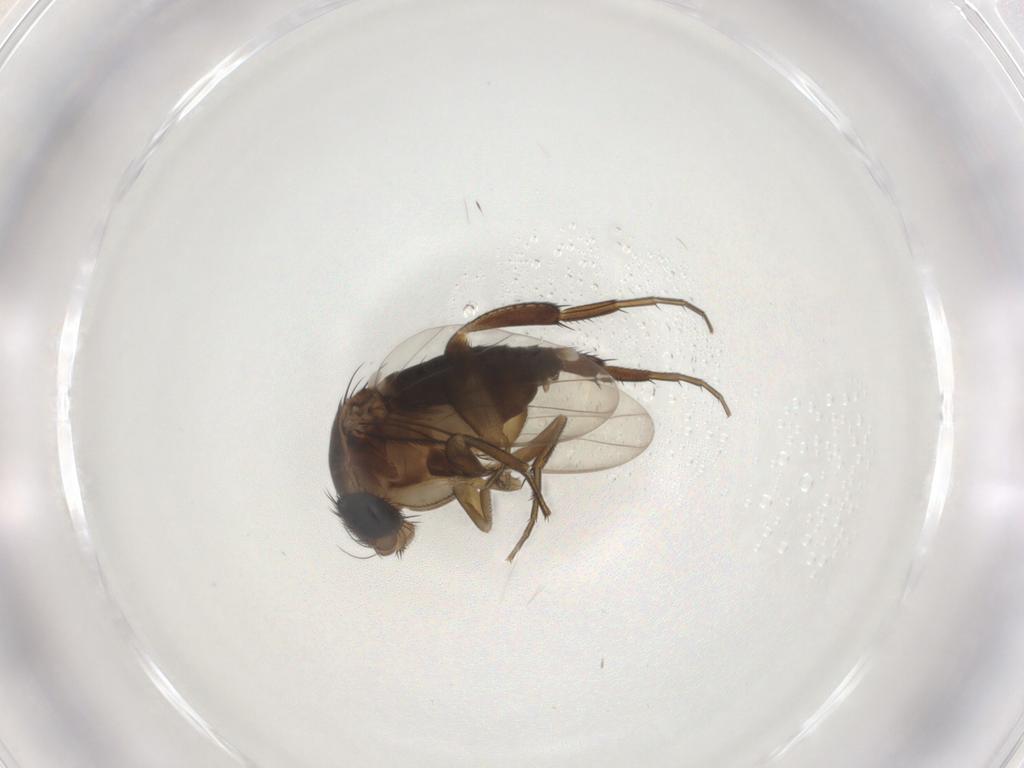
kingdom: Animalia
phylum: Arthropoda
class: Insecta
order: Diptera
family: Phoridae
